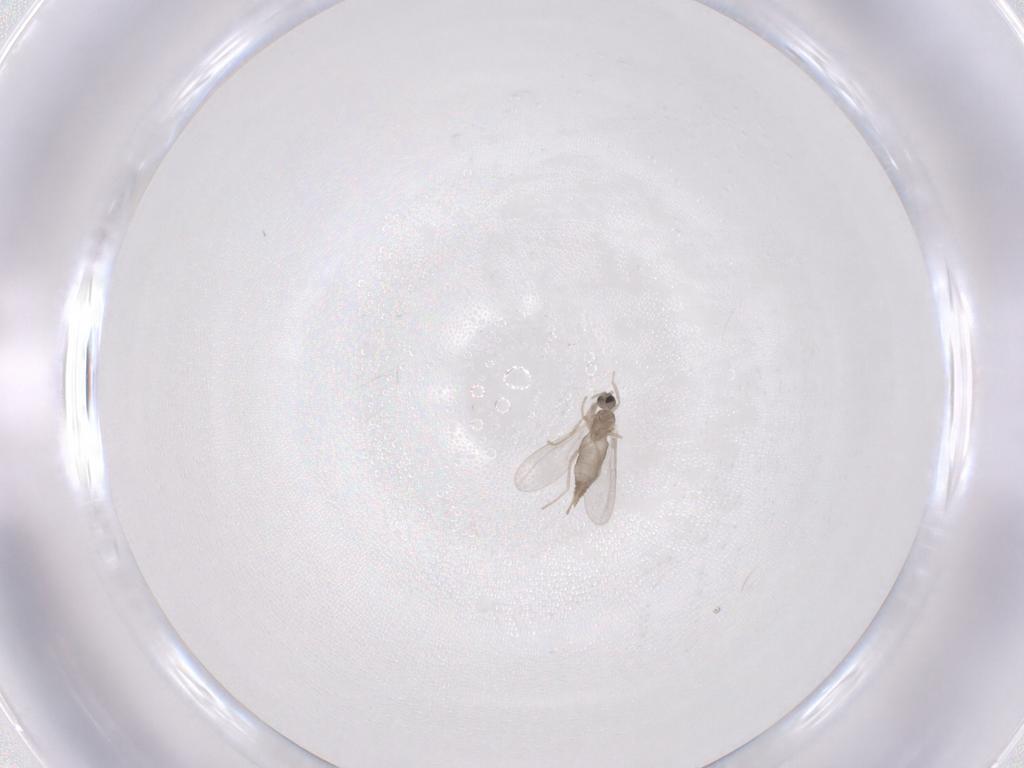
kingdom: Animalia
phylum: Arthropoda
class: Insecta
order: Diptera
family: Cecidomyiidae
